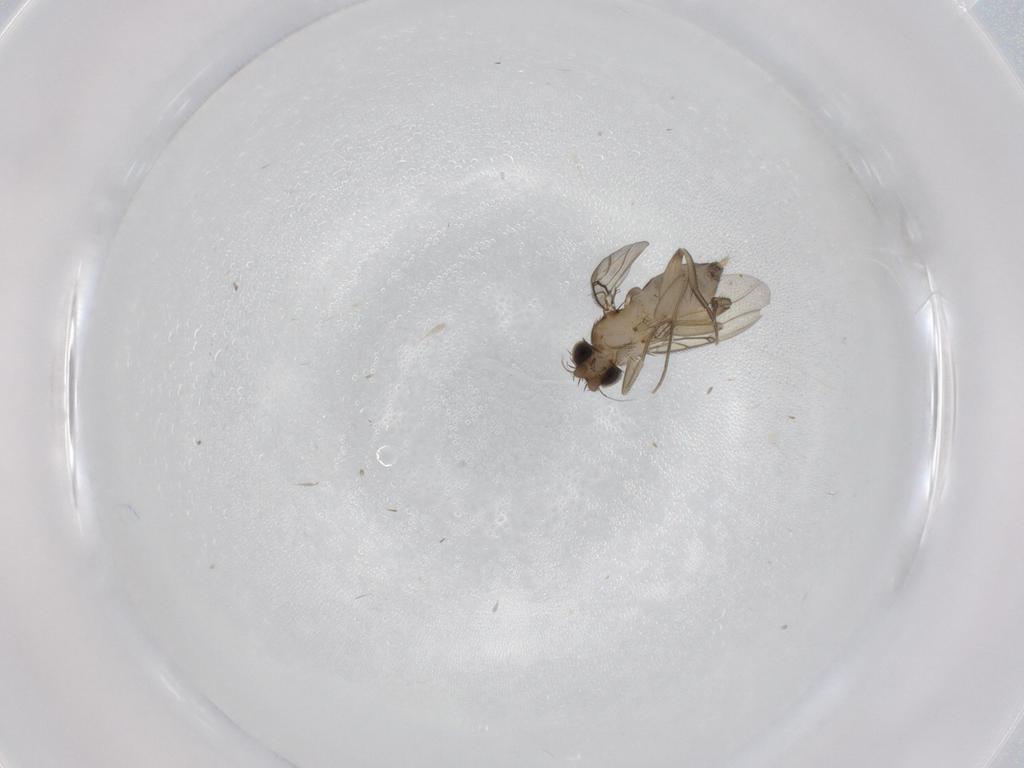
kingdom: Animalia
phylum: Arthropoda
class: Insecta
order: Diptera
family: Phoridae
